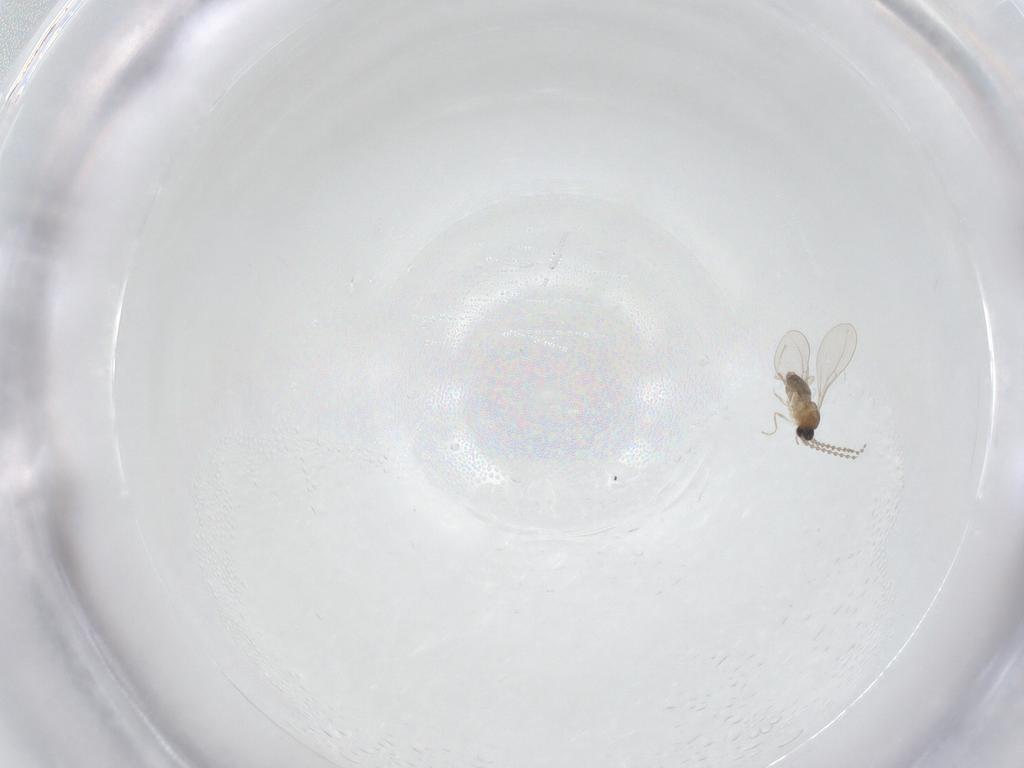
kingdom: Animalia
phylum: Arthropoda
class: Insecta
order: Diptera
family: Cecidomyiidae
